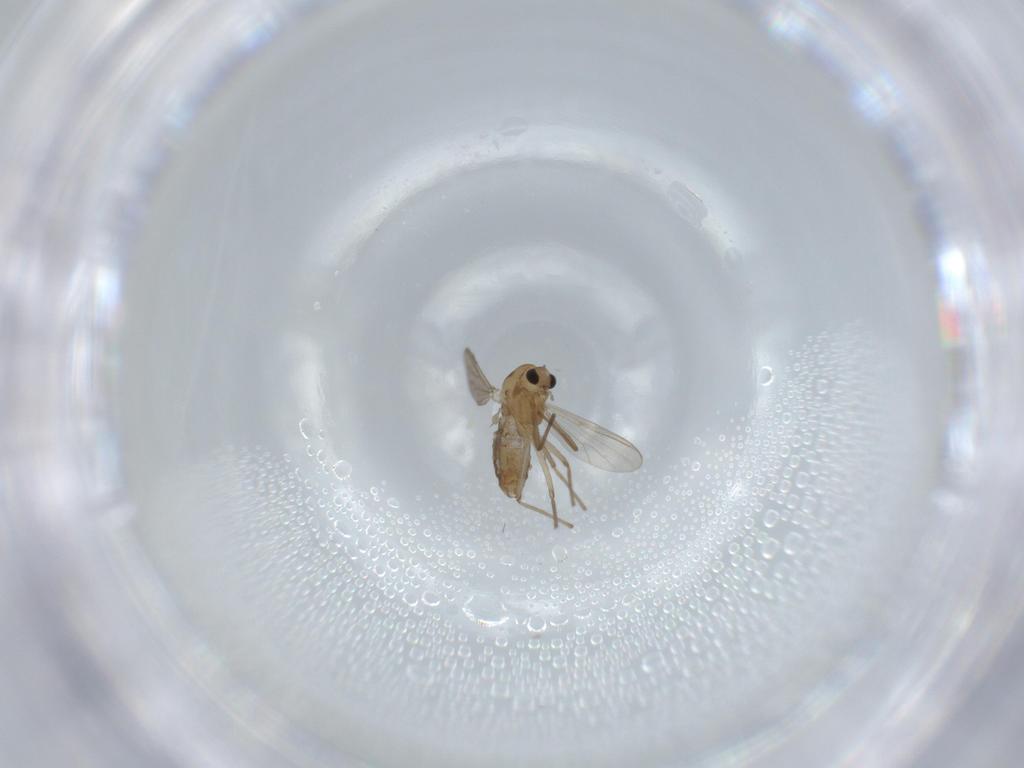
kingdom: Animalia
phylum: Arthropoda
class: Insecta
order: Diptera
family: Chironomidae
